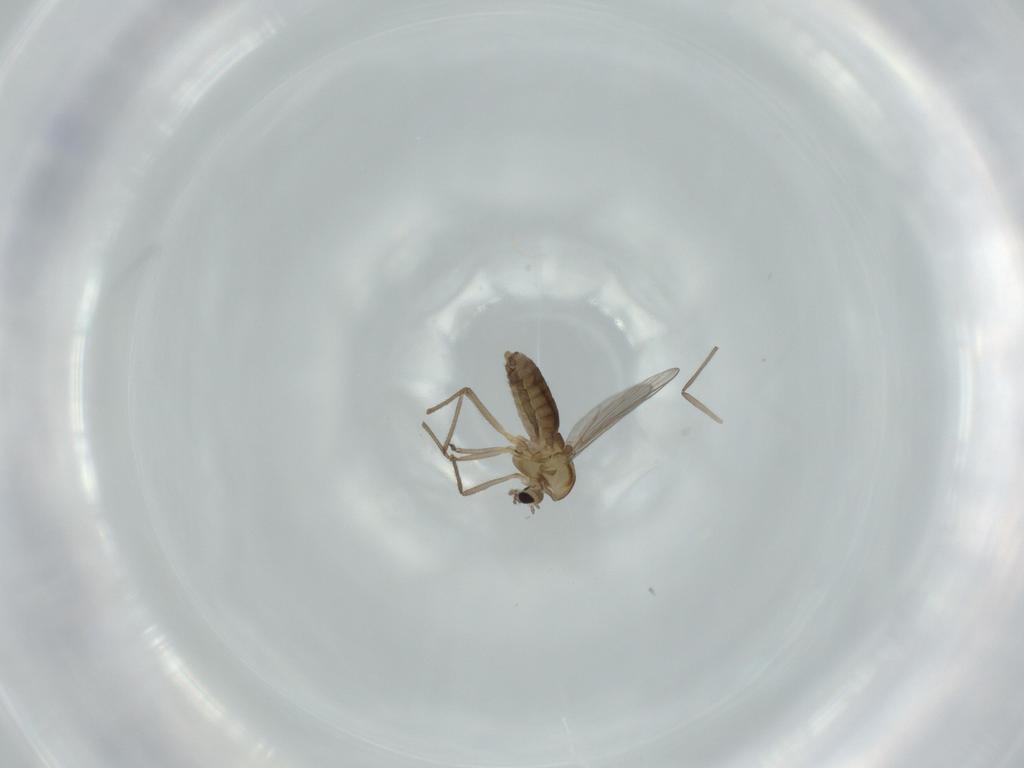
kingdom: Animalia
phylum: Arthropoda
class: Insecta
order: Diptera
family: Chironomidae
